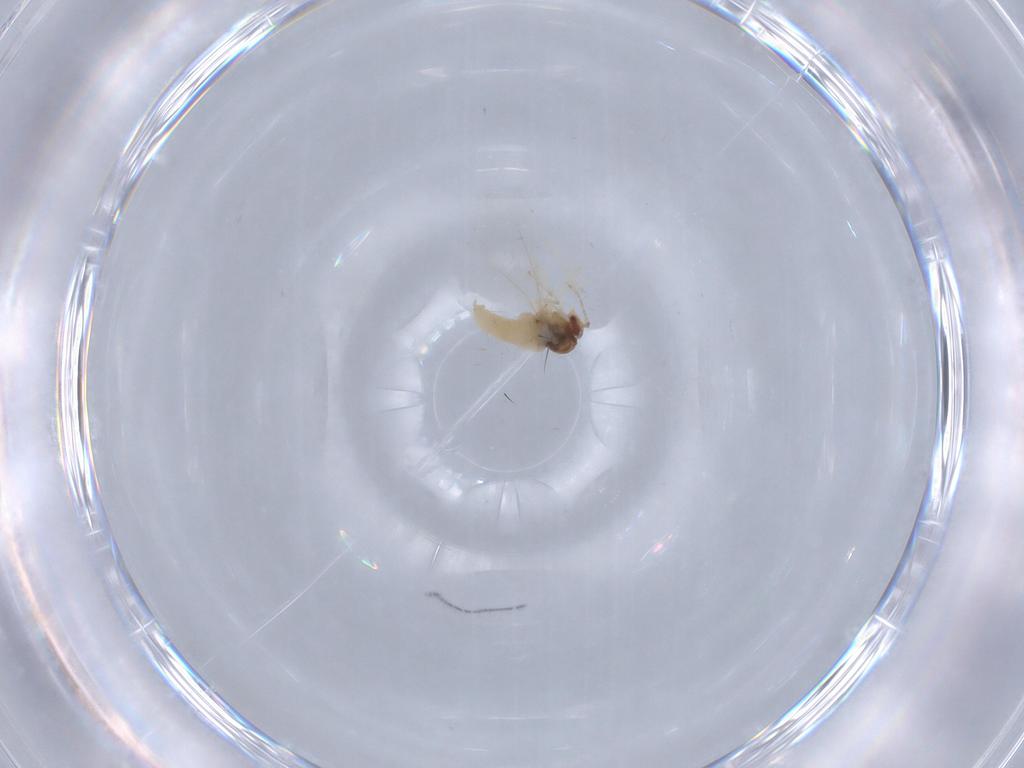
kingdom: Animalia
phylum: Arthropoda
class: Insecta
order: Diptera
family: Cecidomyiidae
